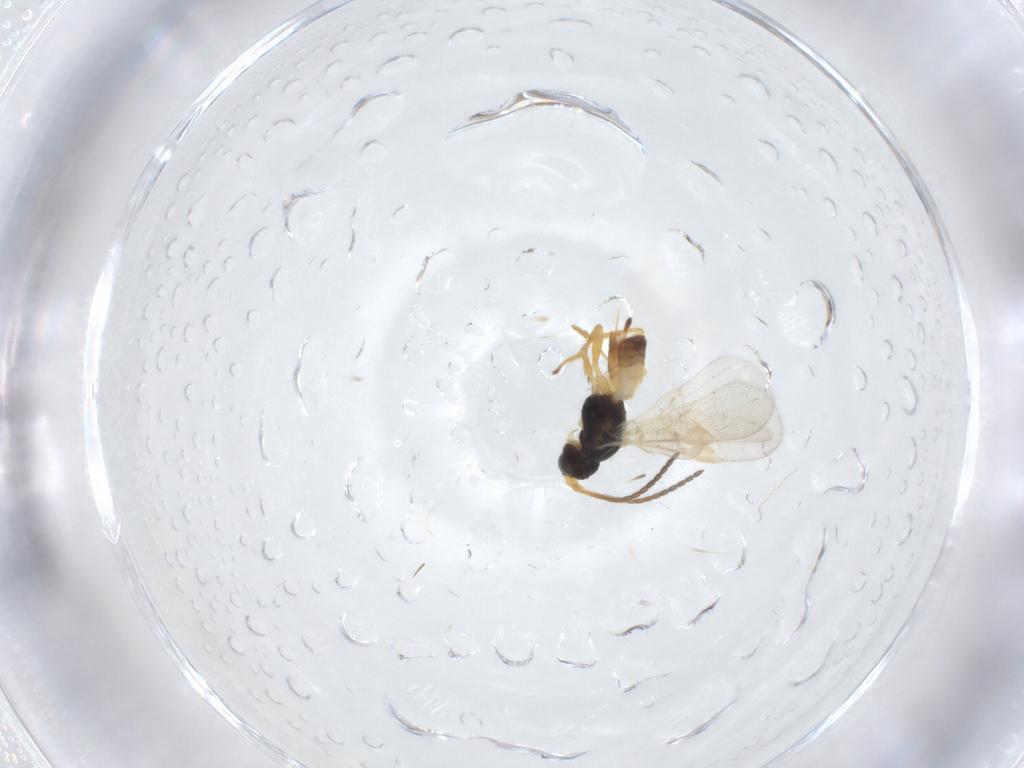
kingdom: Animalia
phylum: Arthropoda
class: Insecta
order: Hymenoptera
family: Braconidae
